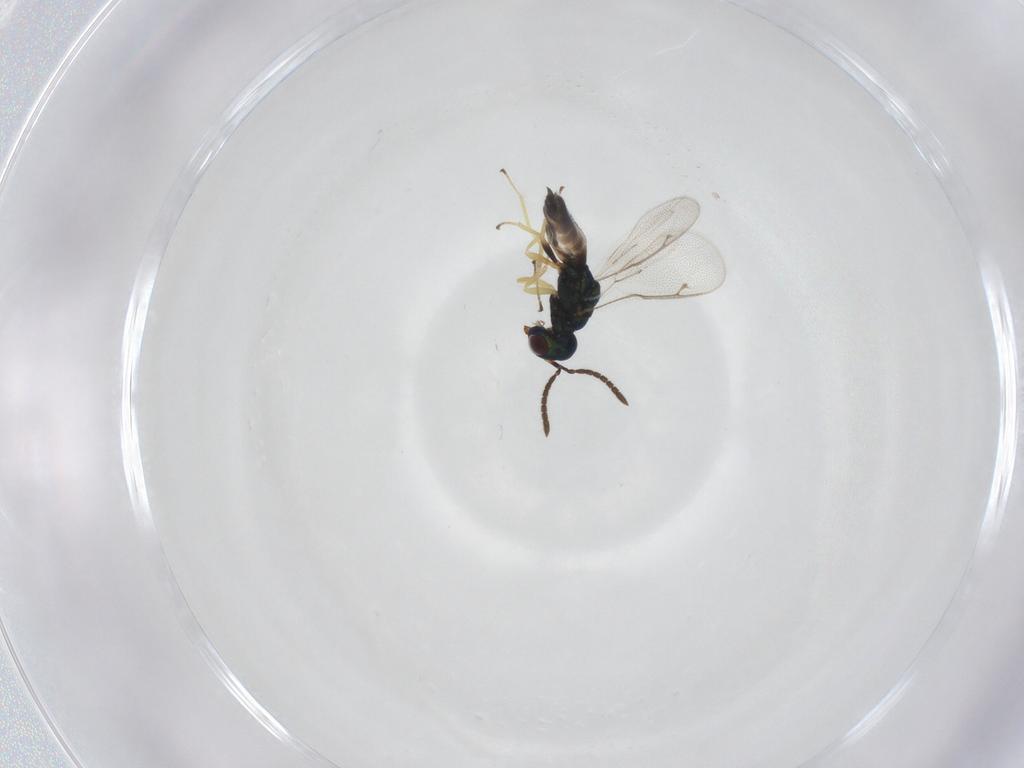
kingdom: Animalia
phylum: Arthropoda
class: Insecta
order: Hymenoptera
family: Pteromalidae
